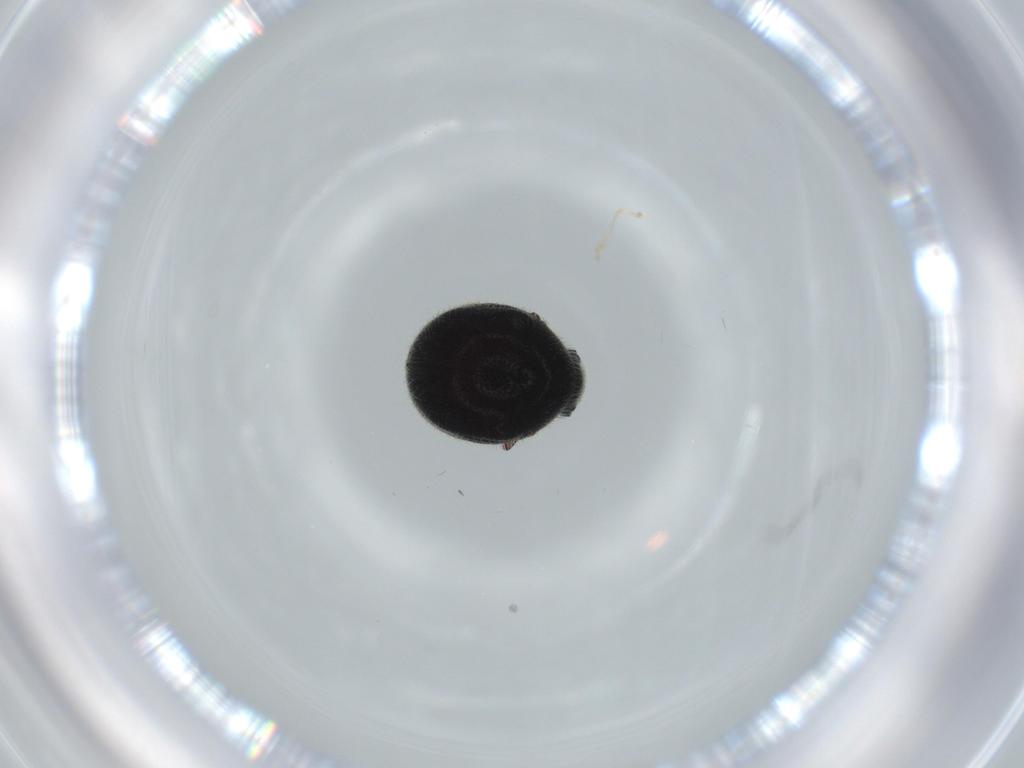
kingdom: Animalia
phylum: Arthropoda
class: Insecta
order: Coleoptera
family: Ptinidae
